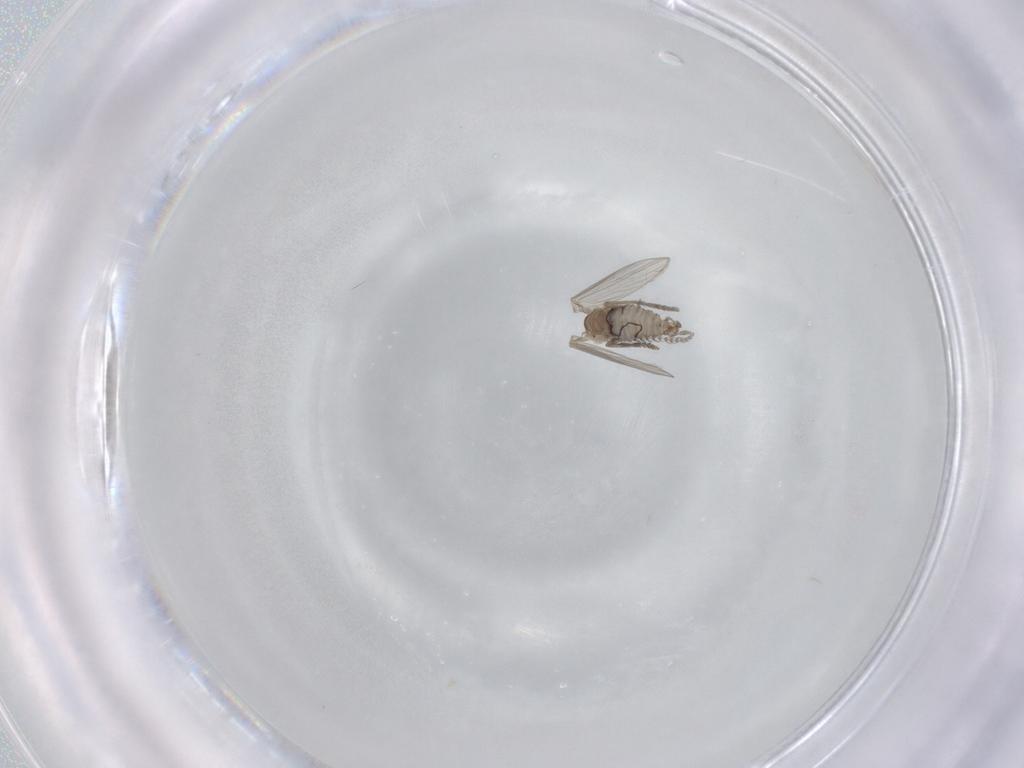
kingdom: Animalia
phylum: Arthropoda
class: Insecta
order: Diptera
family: Psychodidae
